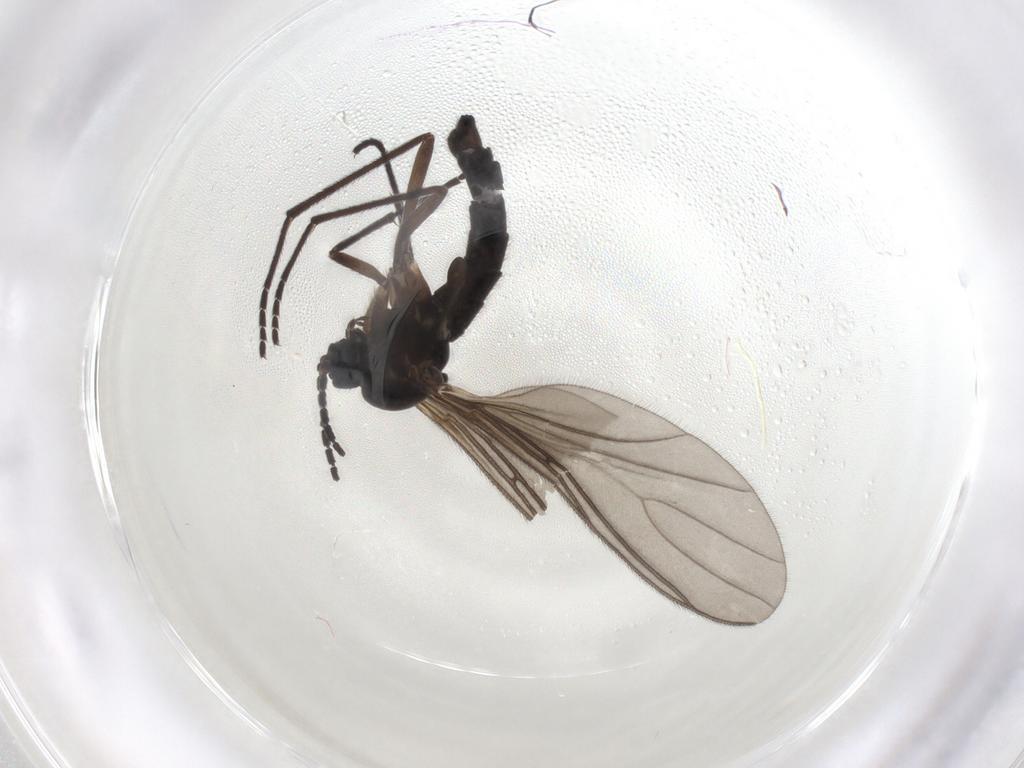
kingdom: Animalia
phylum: Arthropoda
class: Insecta
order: Diptera
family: Sciaridae
